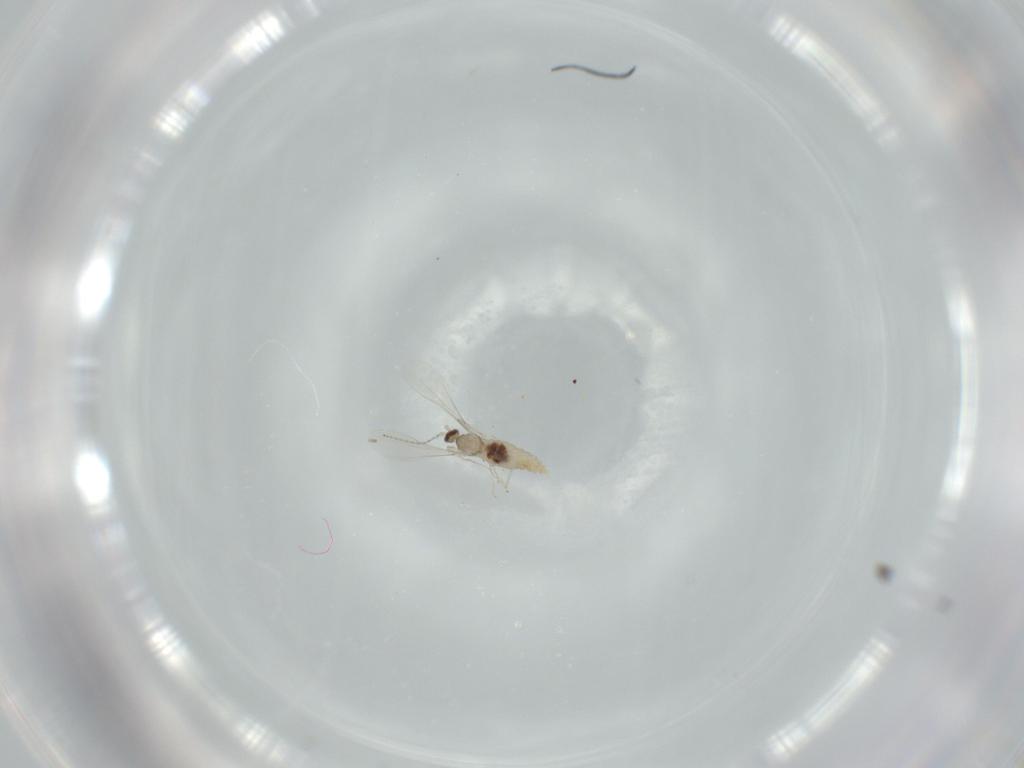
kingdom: Animalia
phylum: Arthropoda
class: Insecta
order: Diptera
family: Cecidomyiidae
